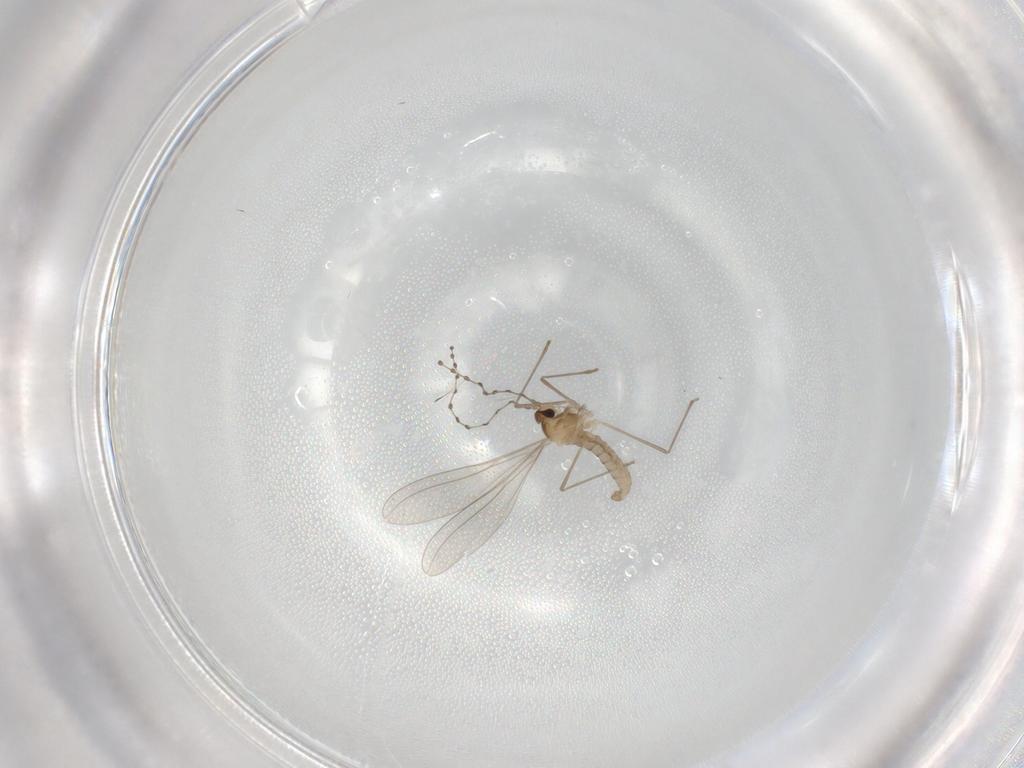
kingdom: Animalia
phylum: Arthropoda
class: Insecta
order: Diptera
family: Cecidomyiidae
